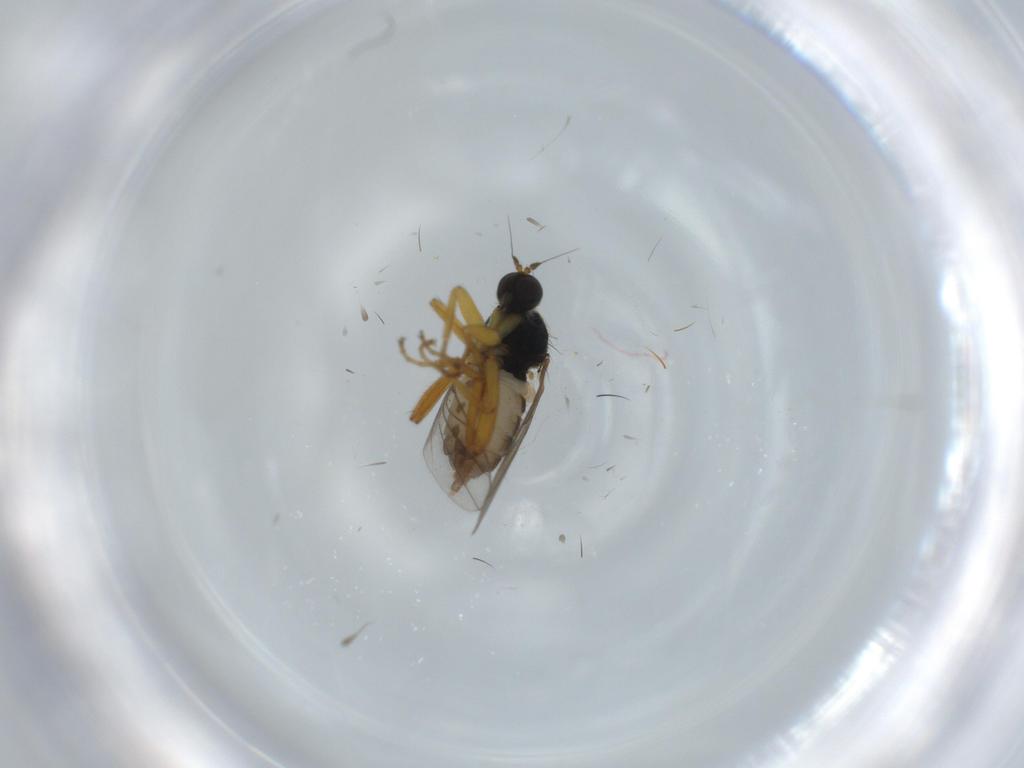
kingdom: Animalia
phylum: Arthropoda
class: Insecta
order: Diptera
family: Hybotidae
